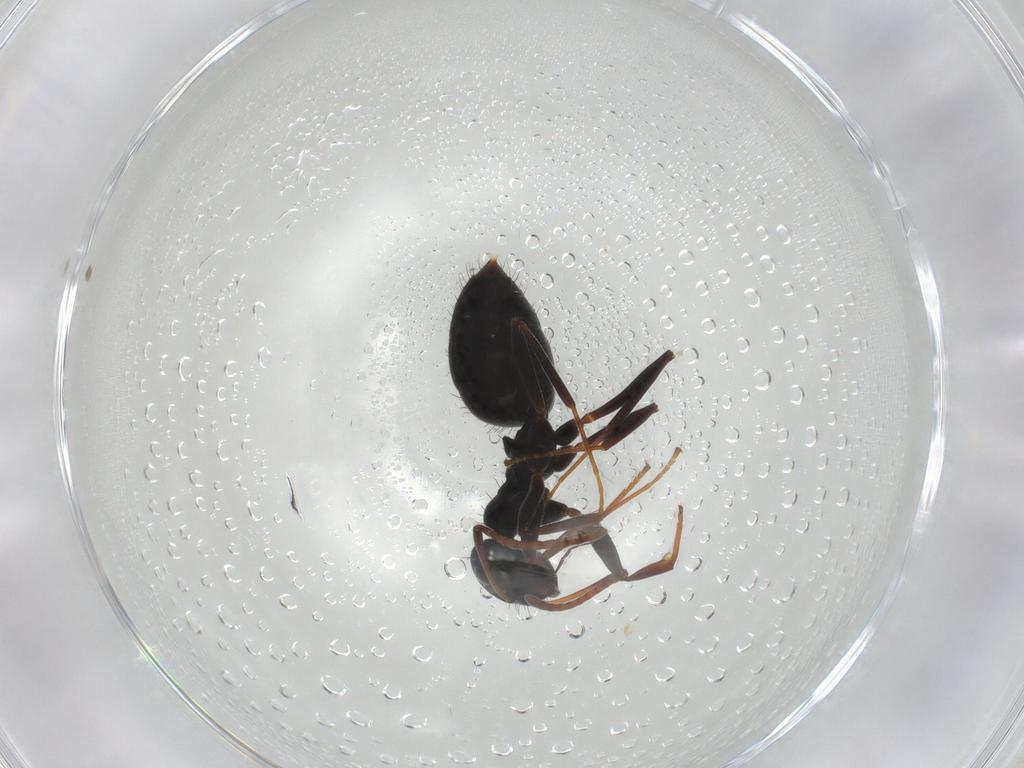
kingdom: Animalia
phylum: Arthropoda
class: Insecta
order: Hymenoptera
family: Formicidae
